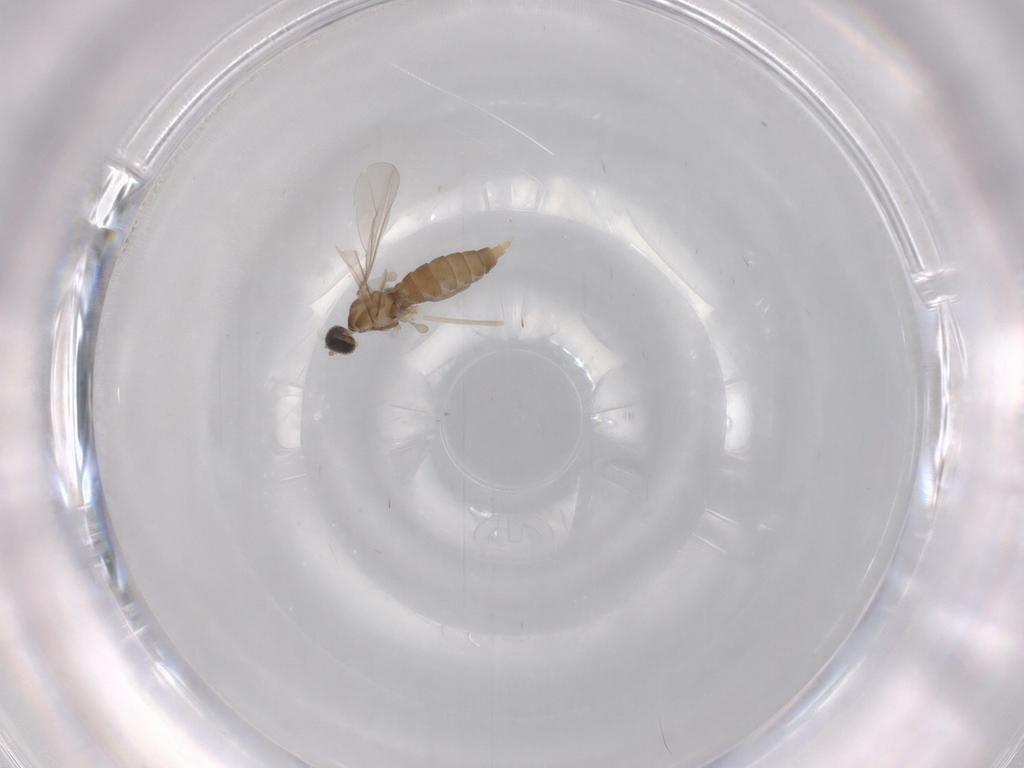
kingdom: Animalia
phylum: Arthropoda
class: Insecta
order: Diptera
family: Cecidomyiidae
